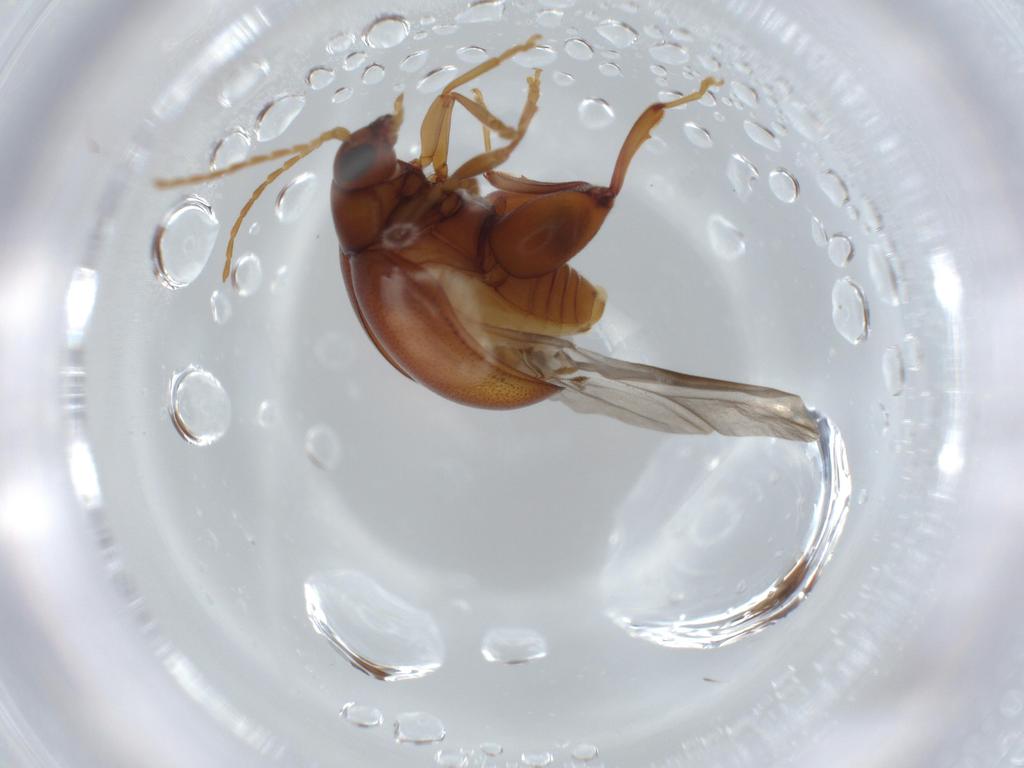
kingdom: Animalia
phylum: Arthropoda
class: Insecta
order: Coleoptera
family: Chrysomelidae
